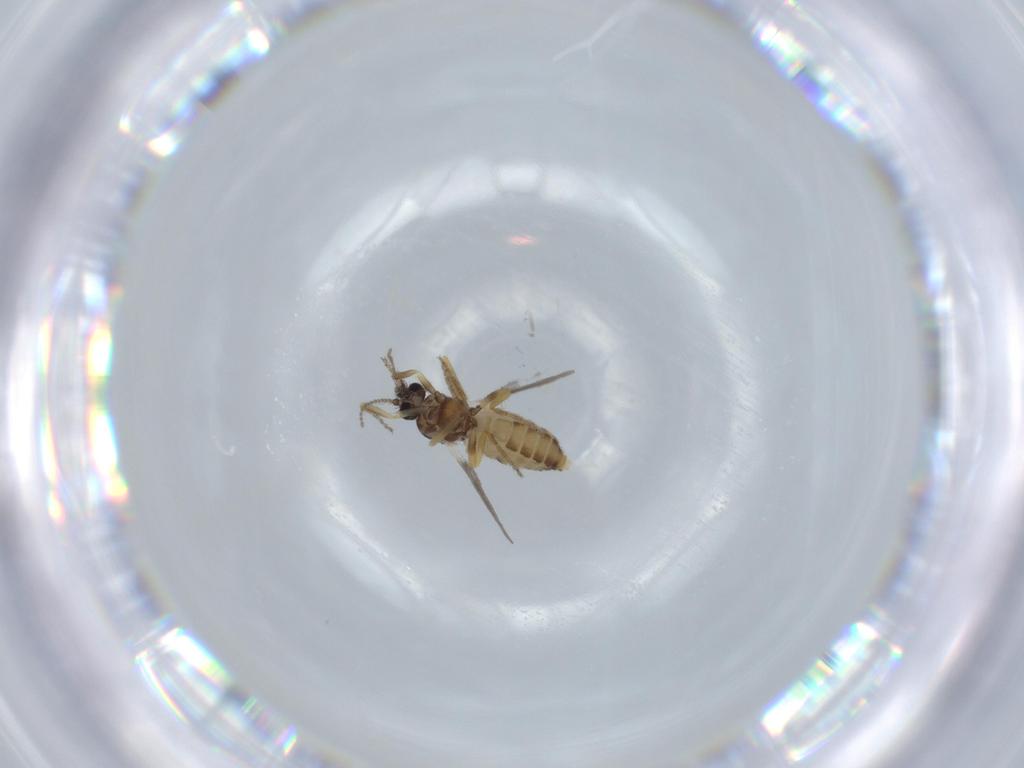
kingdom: Animalia
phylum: Arthropoda
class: Insecta
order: Diptera
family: Ceratopogonidae
